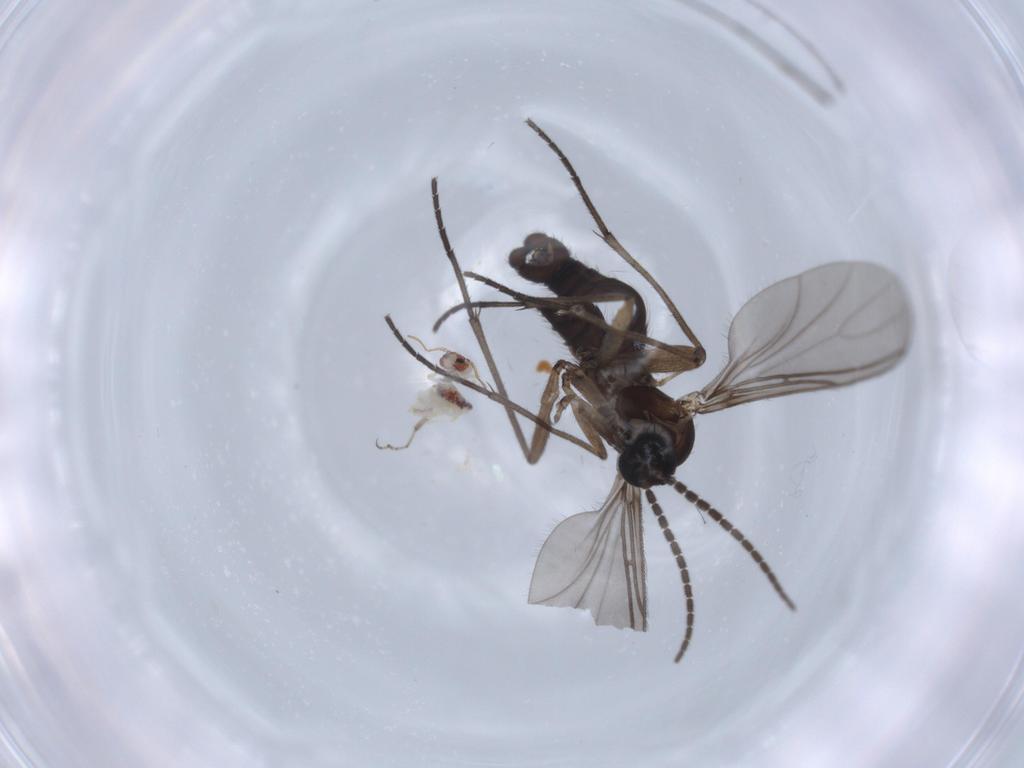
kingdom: Animalia
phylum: Arthropoda
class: Insecta
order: Diptera
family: Sciaridae
